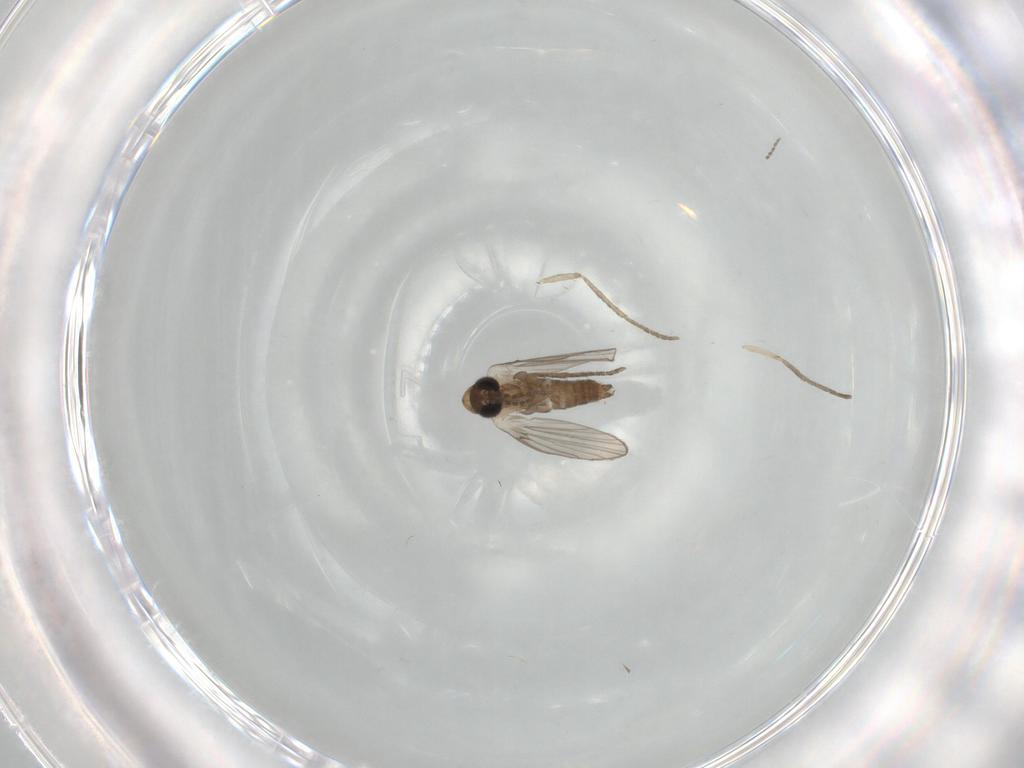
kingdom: Animalia
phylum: Arthropoda
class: Insecta
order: Diptera
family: Psychodidae
